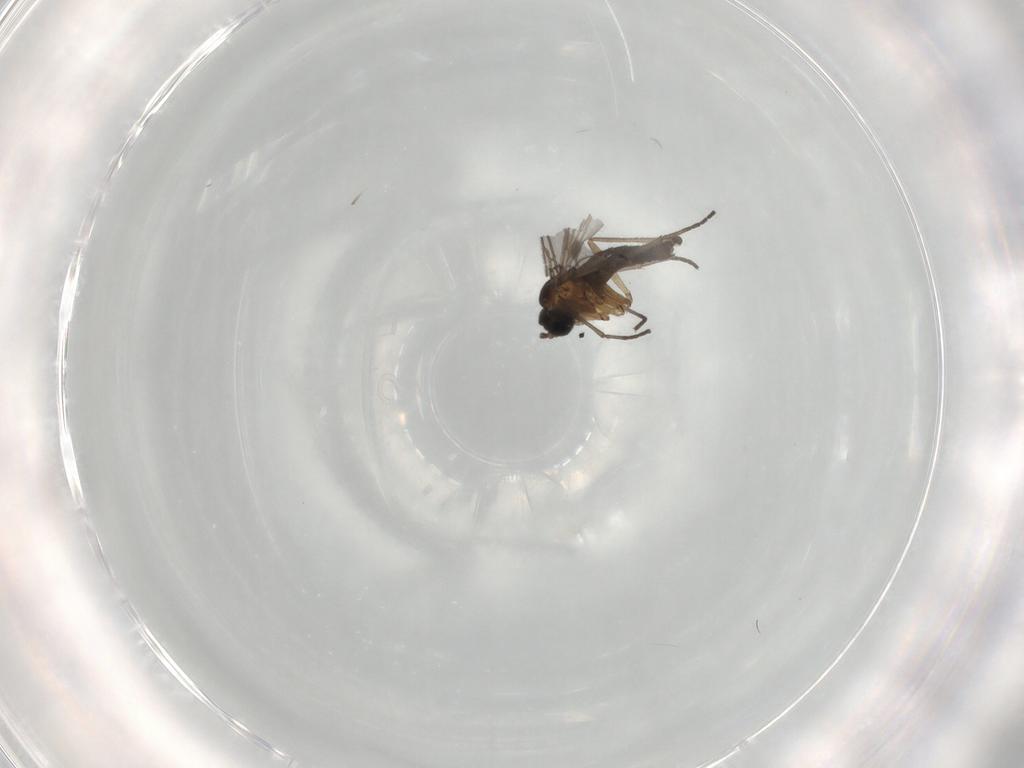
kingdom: Animalia
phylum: Arthropoda
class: Insecta
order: Diptera
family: Sciaridae
